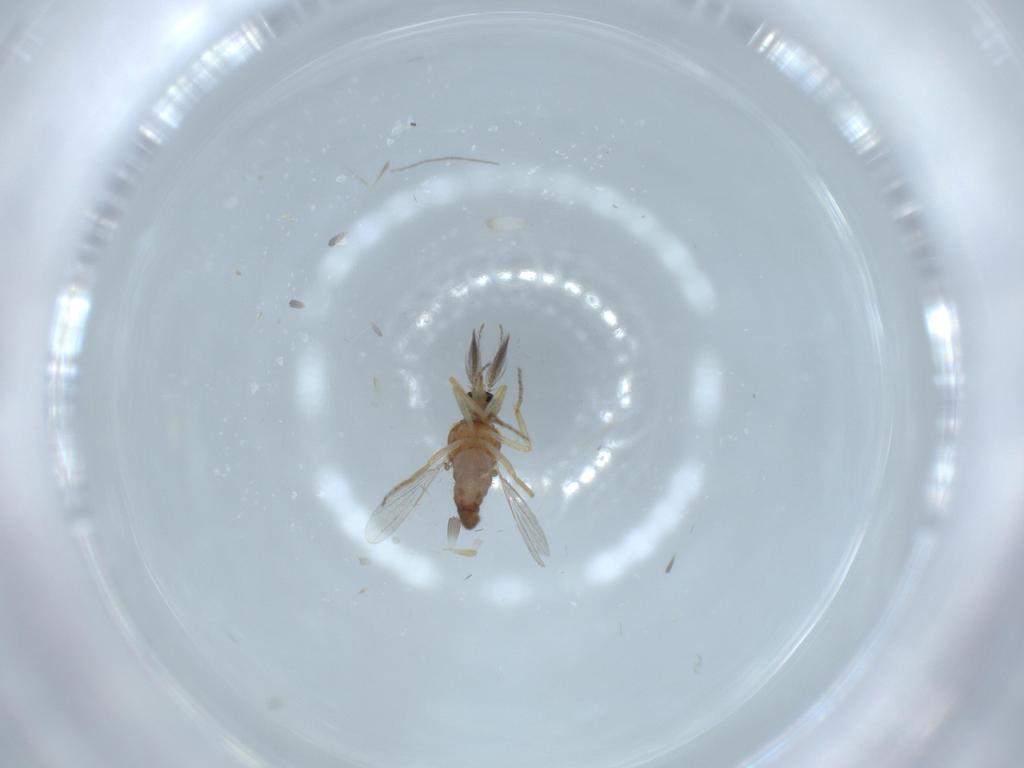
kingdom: Animalia
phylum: Arthropoda
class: Insecta
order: Diptera
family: Ceratopogonidae
